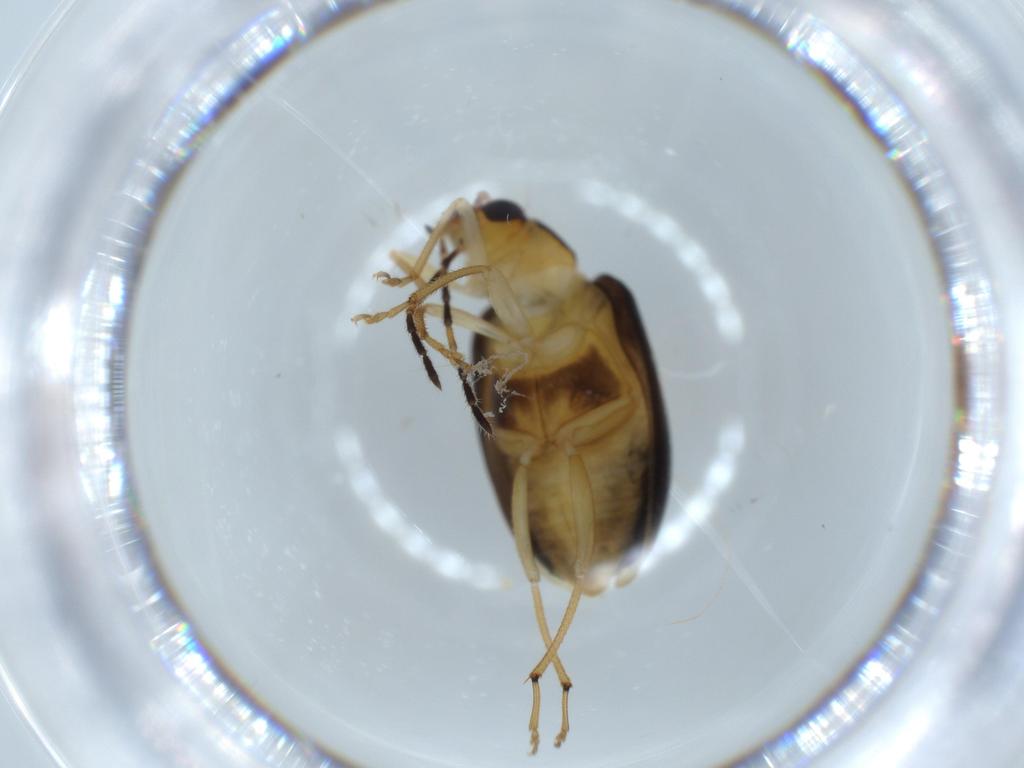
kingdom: Animalia
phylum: Arthropoda
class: Insecta
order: Coleoptera
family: Chrysomelidae
